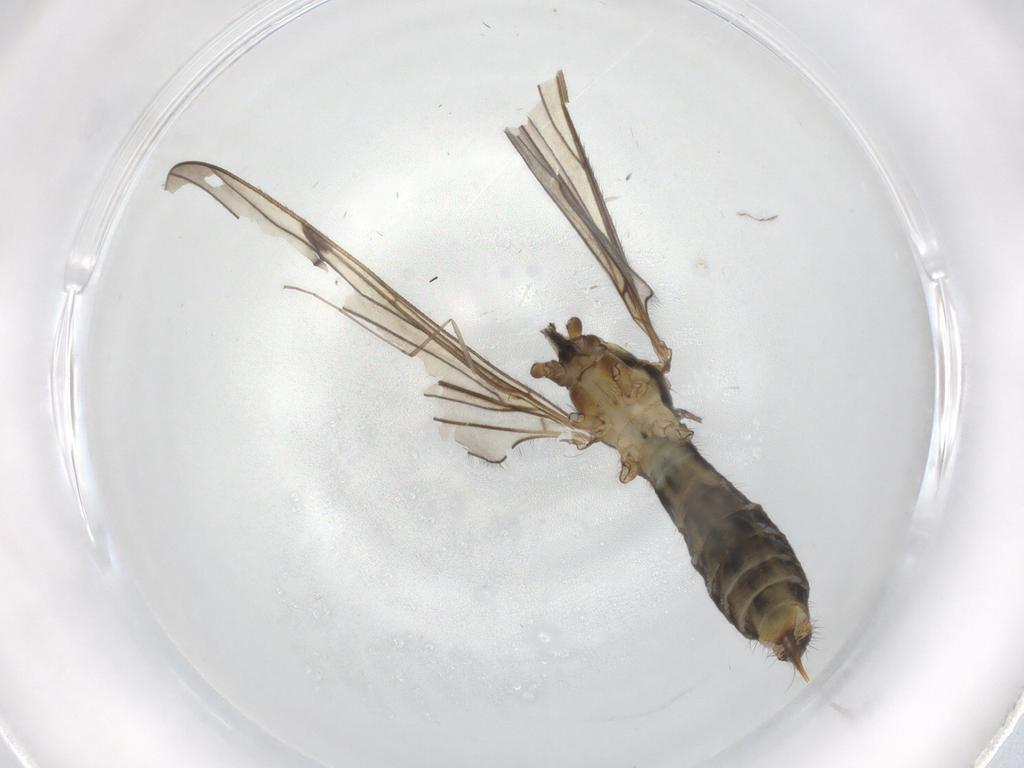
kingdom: Animalia
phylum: Arthropoda
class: Insecta
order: Diptera
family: Limoniidae
